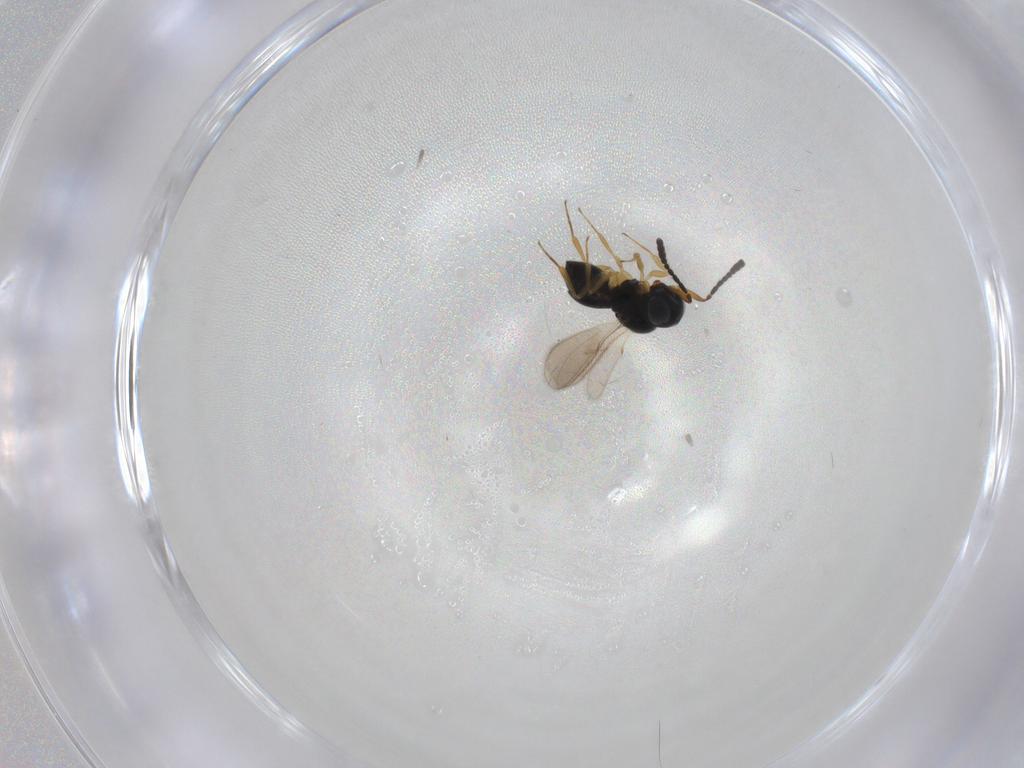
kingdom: Animalia
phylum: Arthropoda
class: Insecta
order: Hymenoptera
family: Scelionidae
